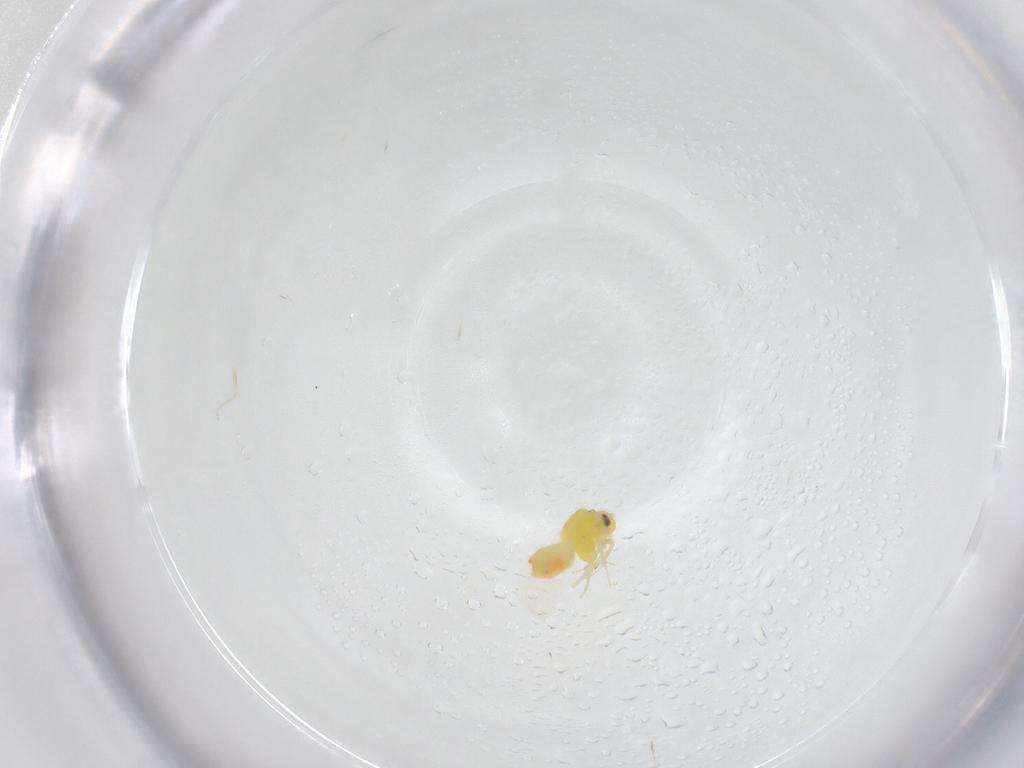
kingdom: Animalia
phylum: Arthropoda
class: Insecta
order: Hemiptera
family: Aleyrodidae
